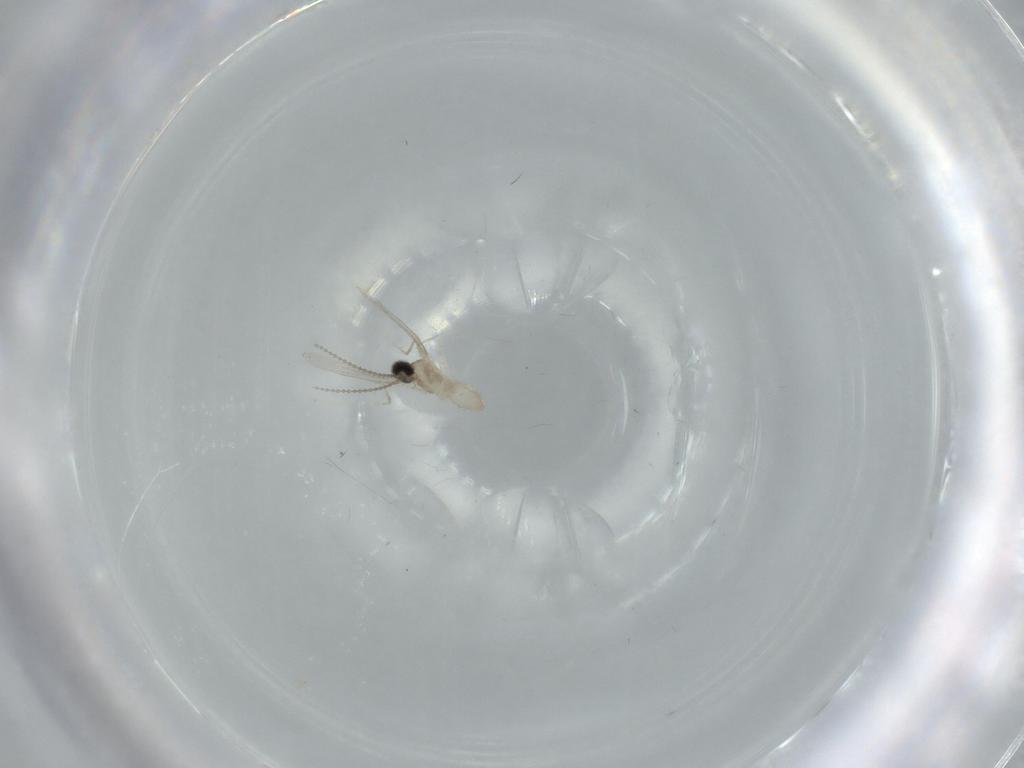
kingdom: Animalia
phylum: Arthropoda
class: Insecta
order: Diptera
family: Cecidomyiidae
